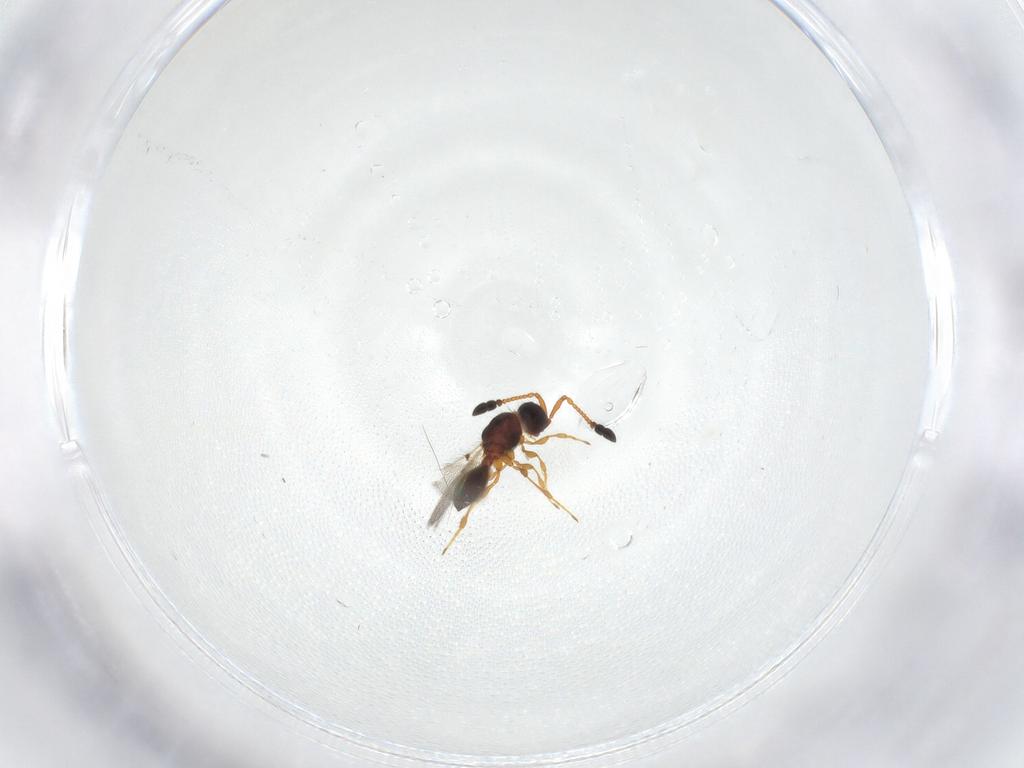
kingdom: Animalia
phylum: Arthropoda
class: Insecta
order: Hymenoptera
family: Diapriidae
